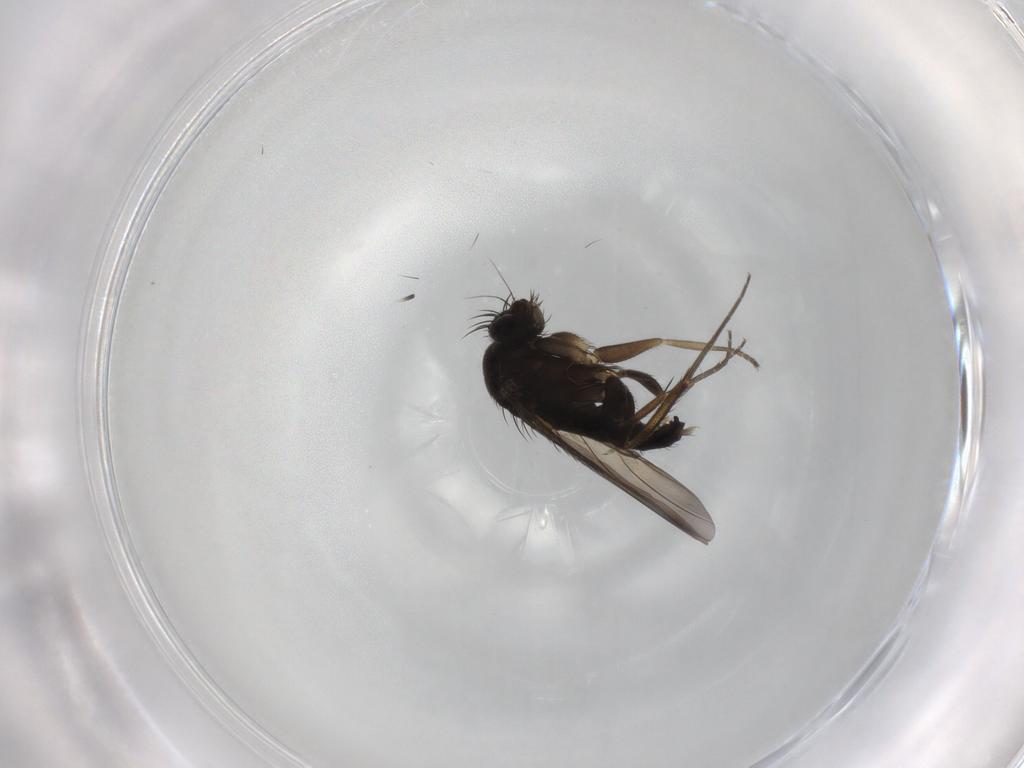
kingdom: Animalia
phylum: Arthropoda
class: Insecta
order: Diptera
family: Phoridae
